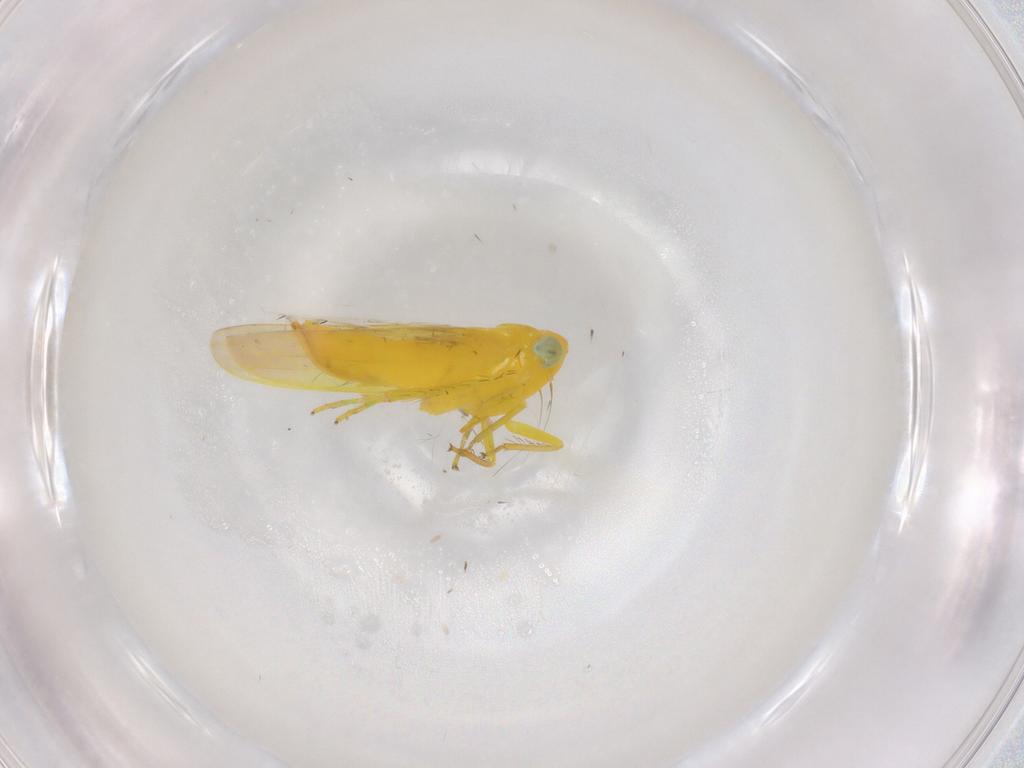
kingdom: Animalia
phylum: Arthropoda
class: Insecta
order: Hemiptera
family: Cicadellidae
